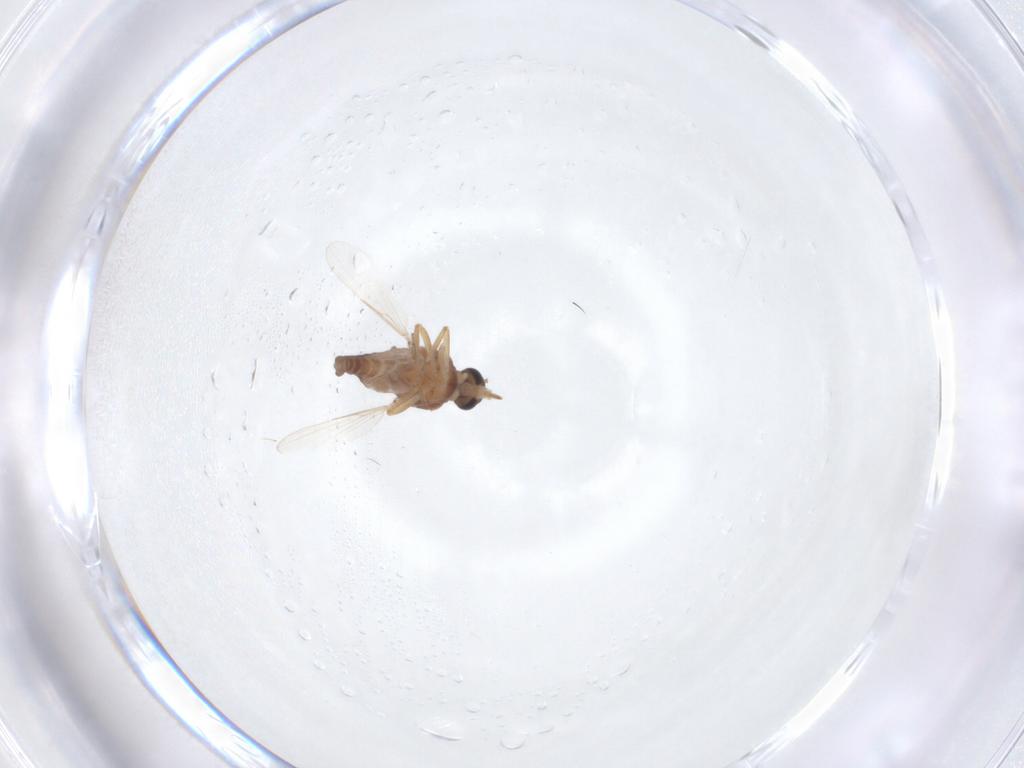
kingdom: Animalia
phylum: Arthropoda
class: Insecta
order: Diptera
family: Ceratopogonidae
